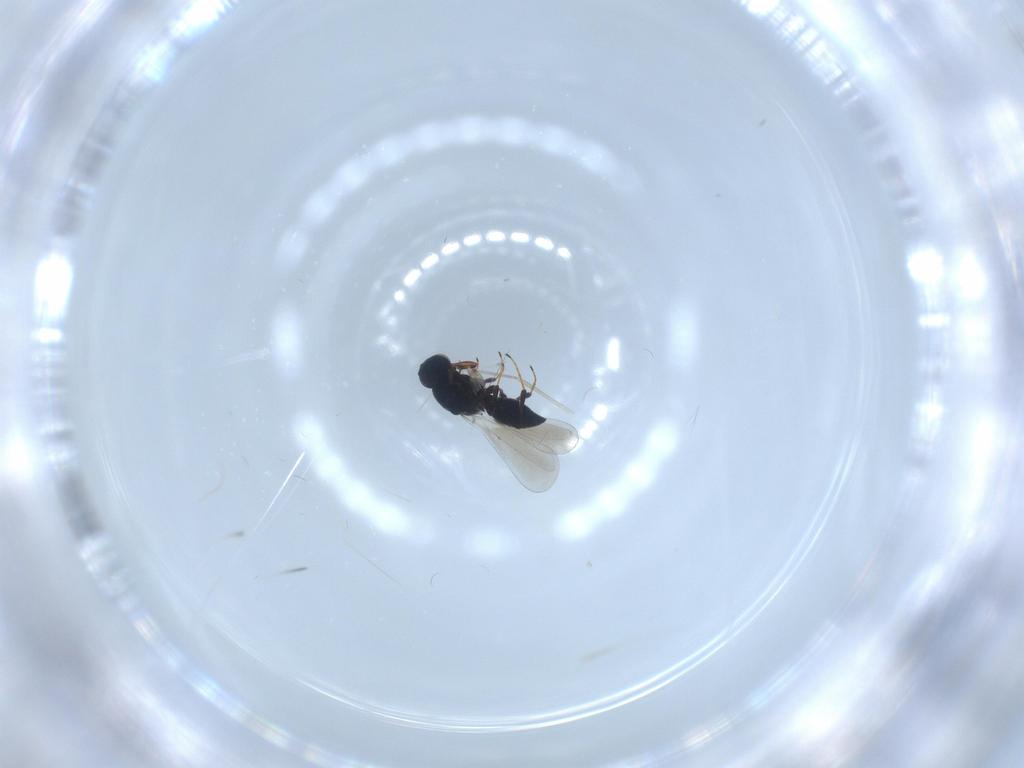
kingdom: Animalia
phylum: Arthropoda
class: Insecta
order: Hymenoptera
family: Platygastridae
